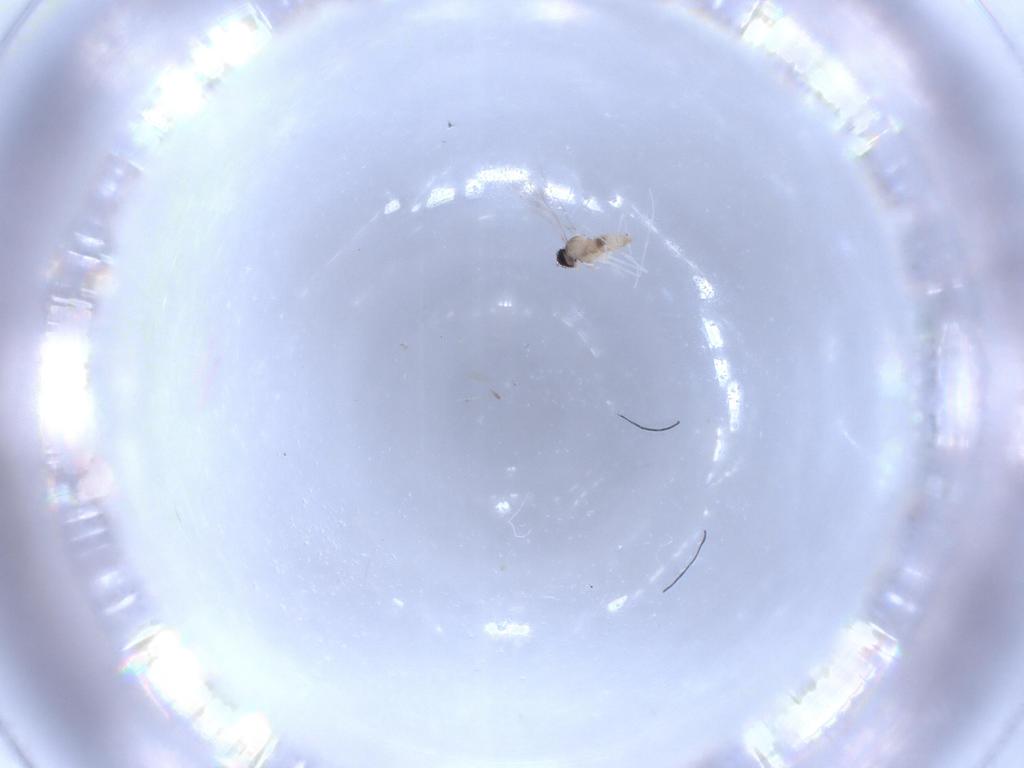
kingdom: Animalia
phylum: Arthropoda
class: Insecta
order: Diptera
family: Cecidomyiidae
